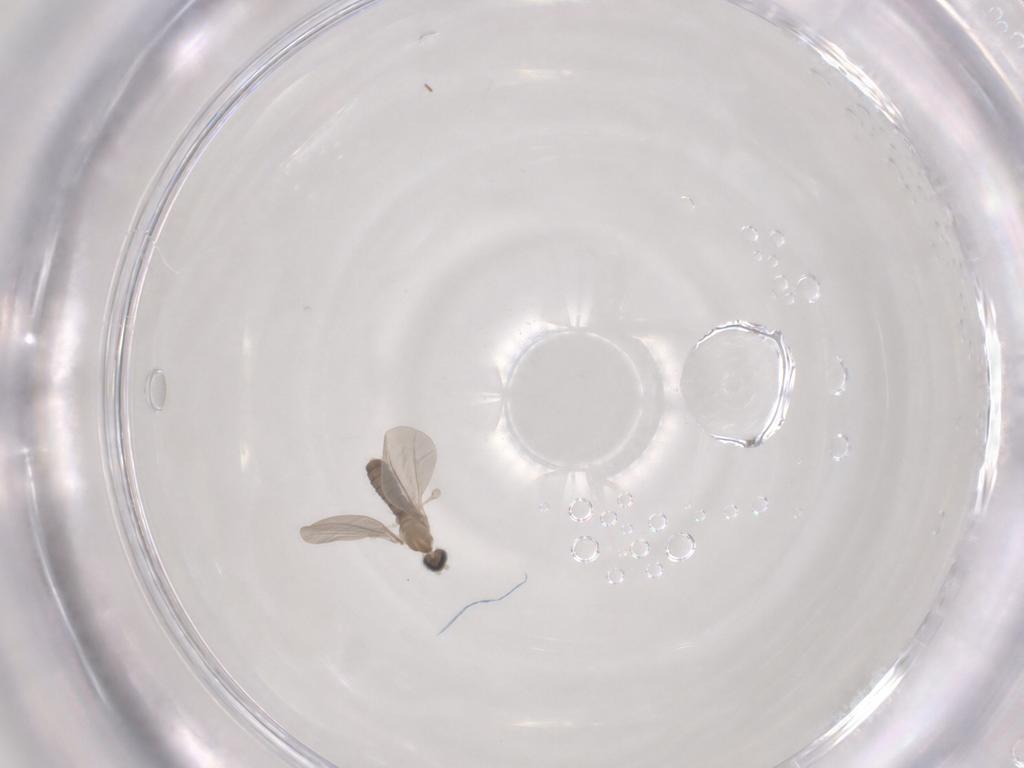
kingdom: Animalia
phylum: Arthropoda
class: Insecta
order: Diptera
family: Cecidomyiidae
